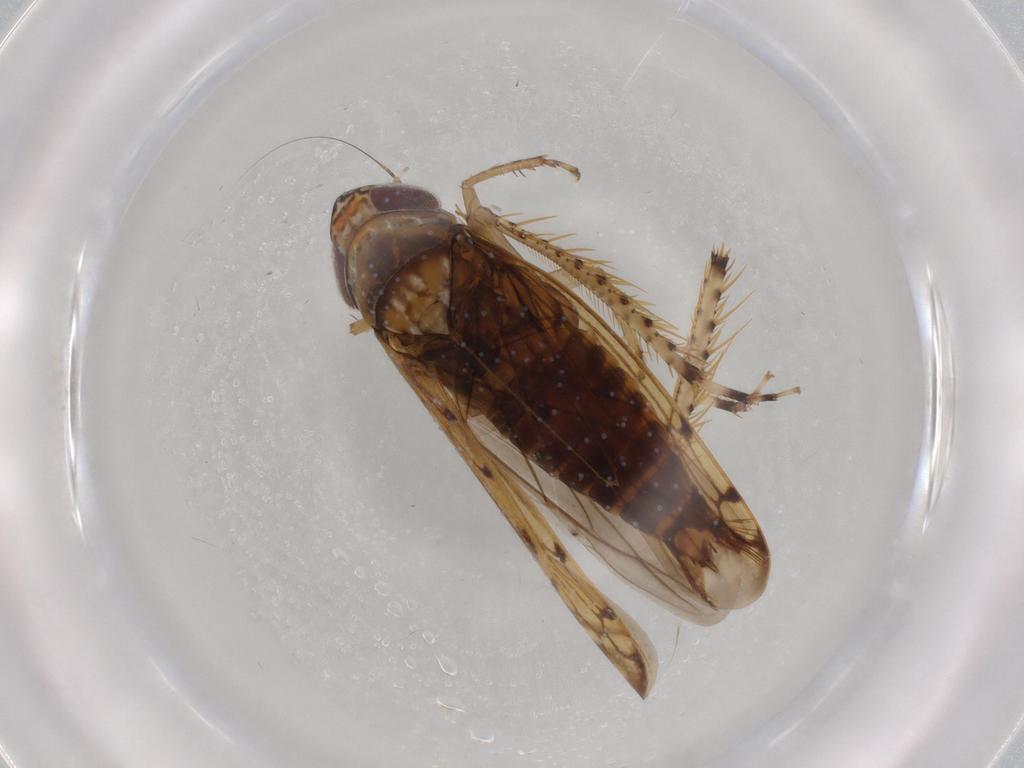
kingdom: Animalia
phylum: Arthropoda
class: Insecta
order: Hemiptera
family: Cicadellidae
